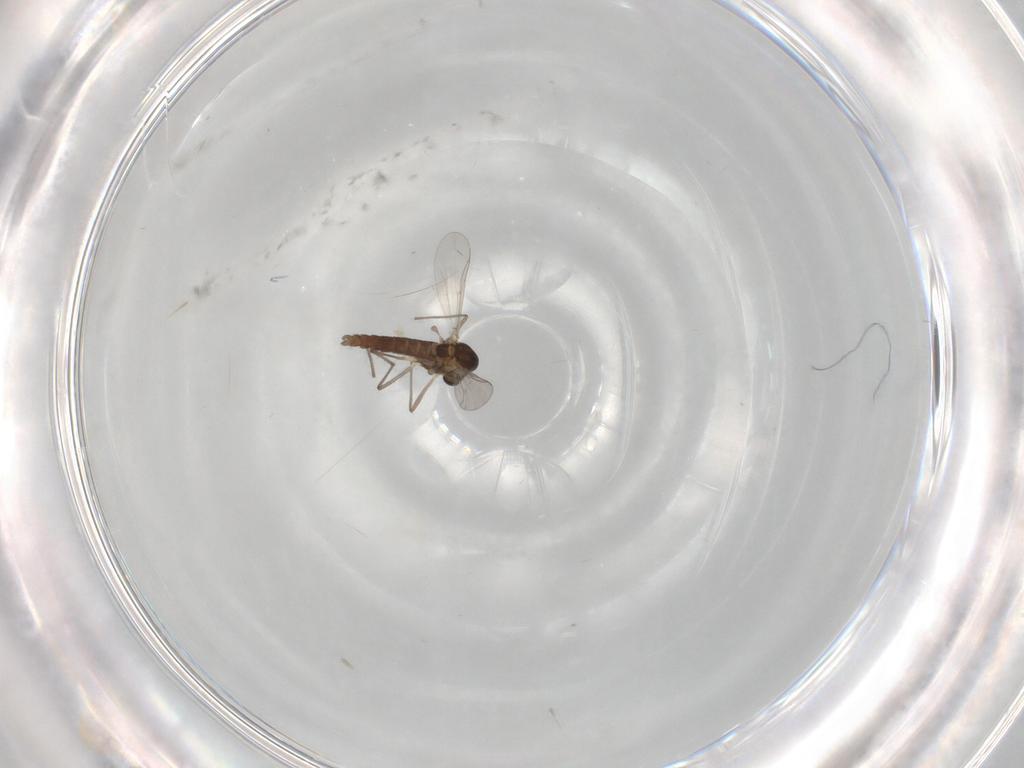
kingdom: Animalia
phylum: Arthropoda
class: Insecta
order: Diptera
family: Chironomidae
